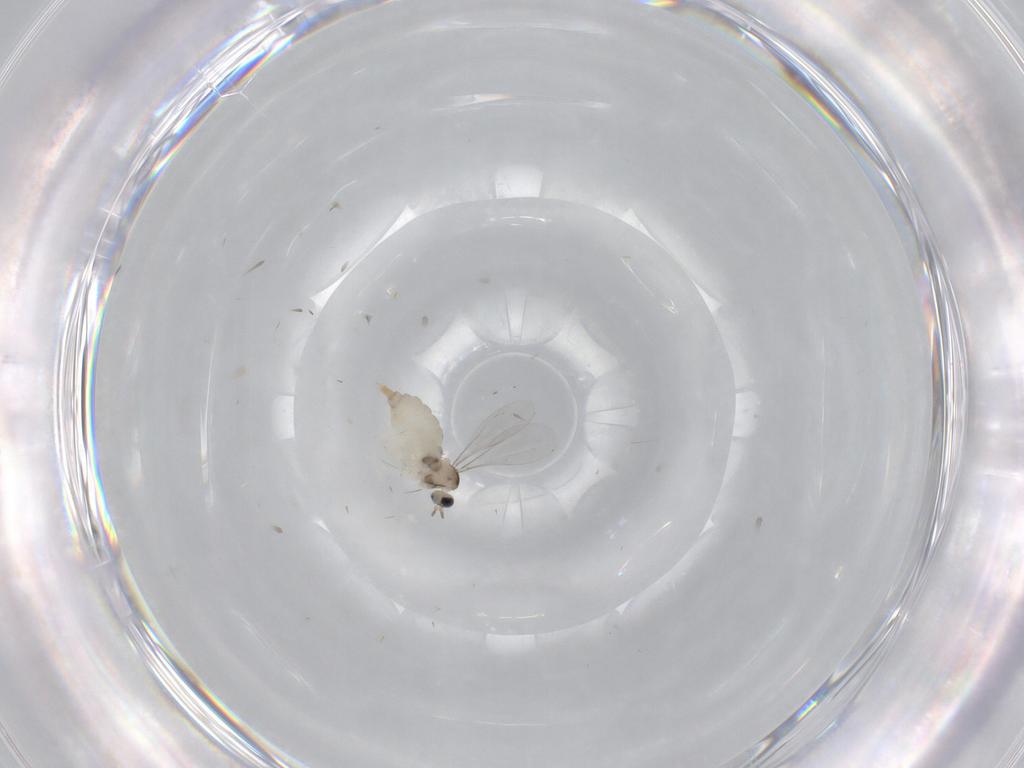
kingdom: Animalia
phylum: Arthropoda
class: Insecta
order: Diptera
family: Phoridae
